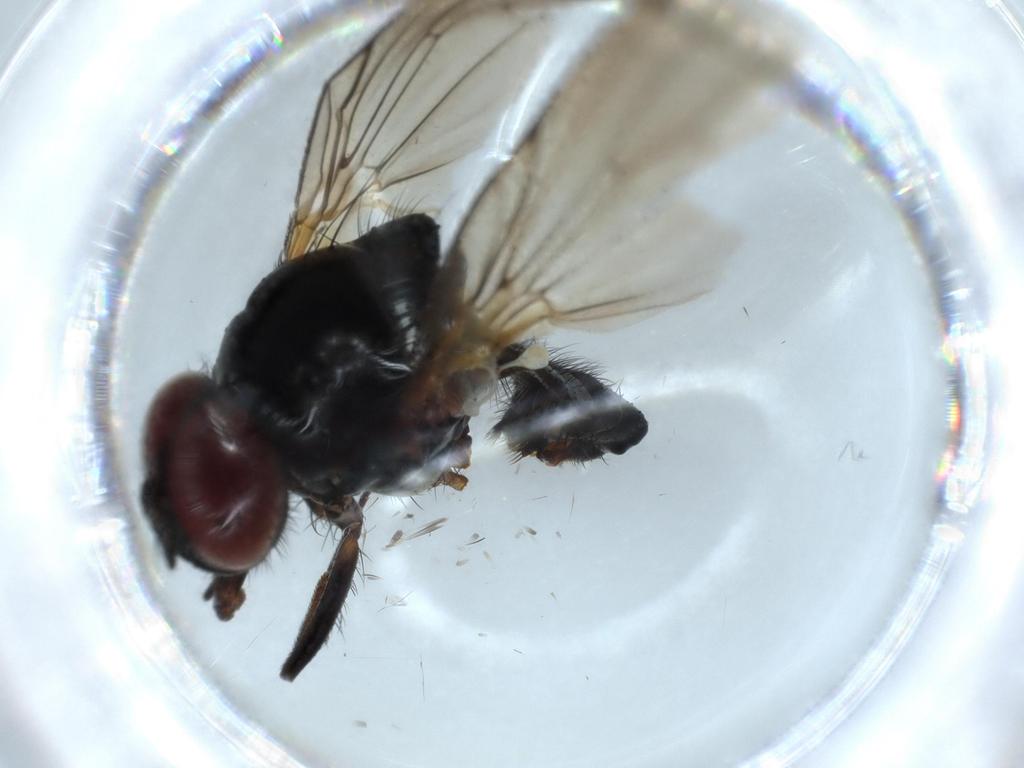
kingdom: Animalia
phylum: Arthropoda
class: Insecta
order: Diptera
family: Anthomyiidae
